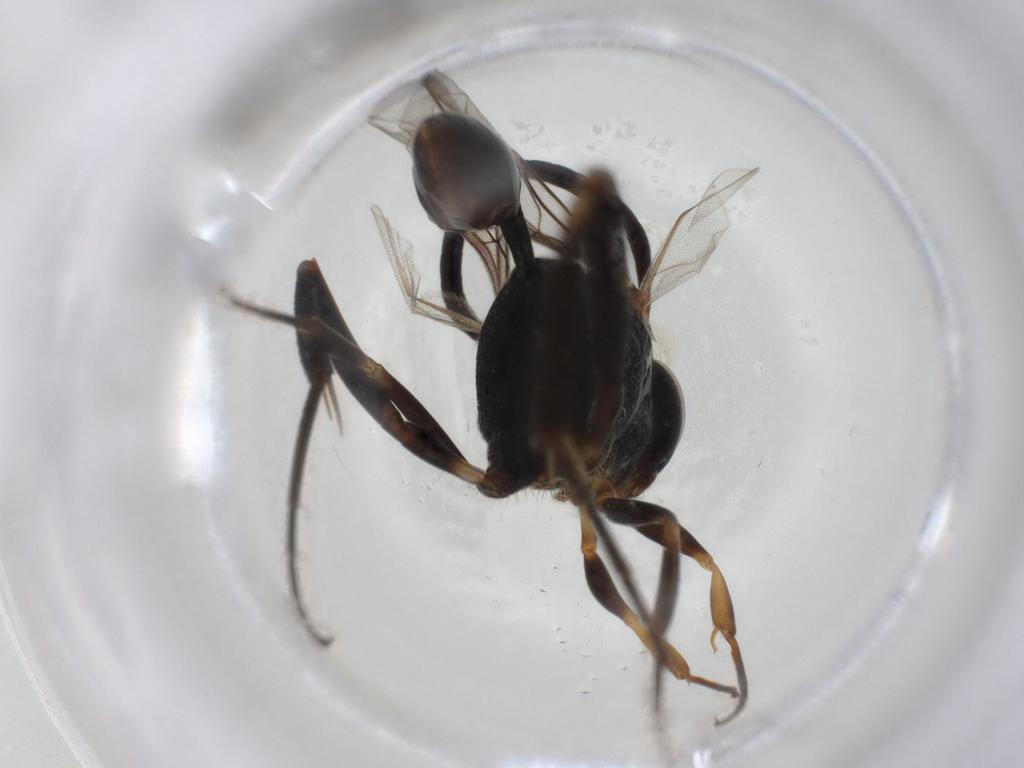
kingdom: Animalia
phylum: Arthropoda
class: Insecta
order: Hymenoptera
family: Evaniidae
